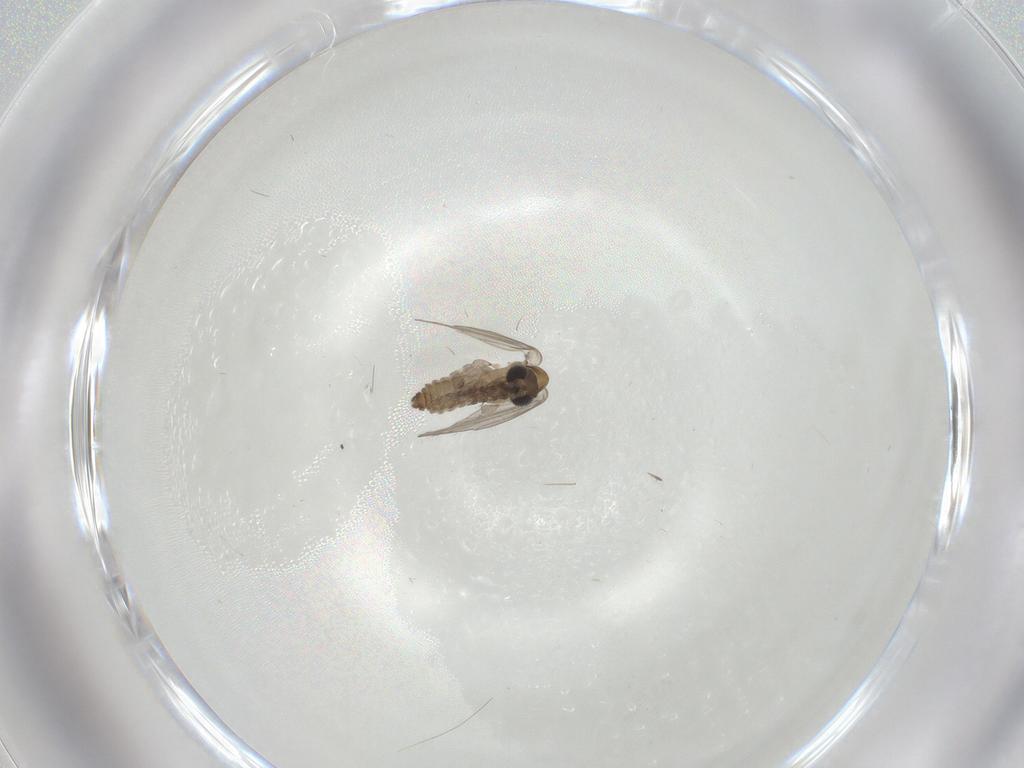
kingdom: Animalia
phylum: Arthropoda
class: Insecta
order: Diptera
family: Psychodidae
